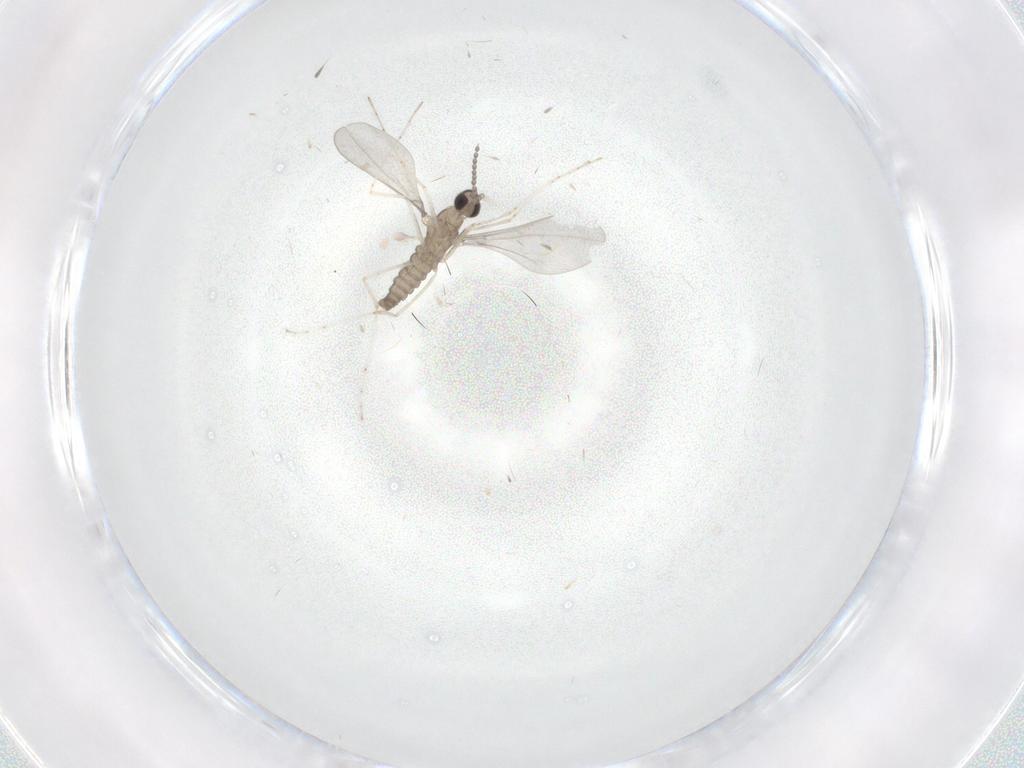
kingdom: Animalia
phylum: Arthropoda
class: Insecta
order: Diptera
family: Cecidomyiidae
